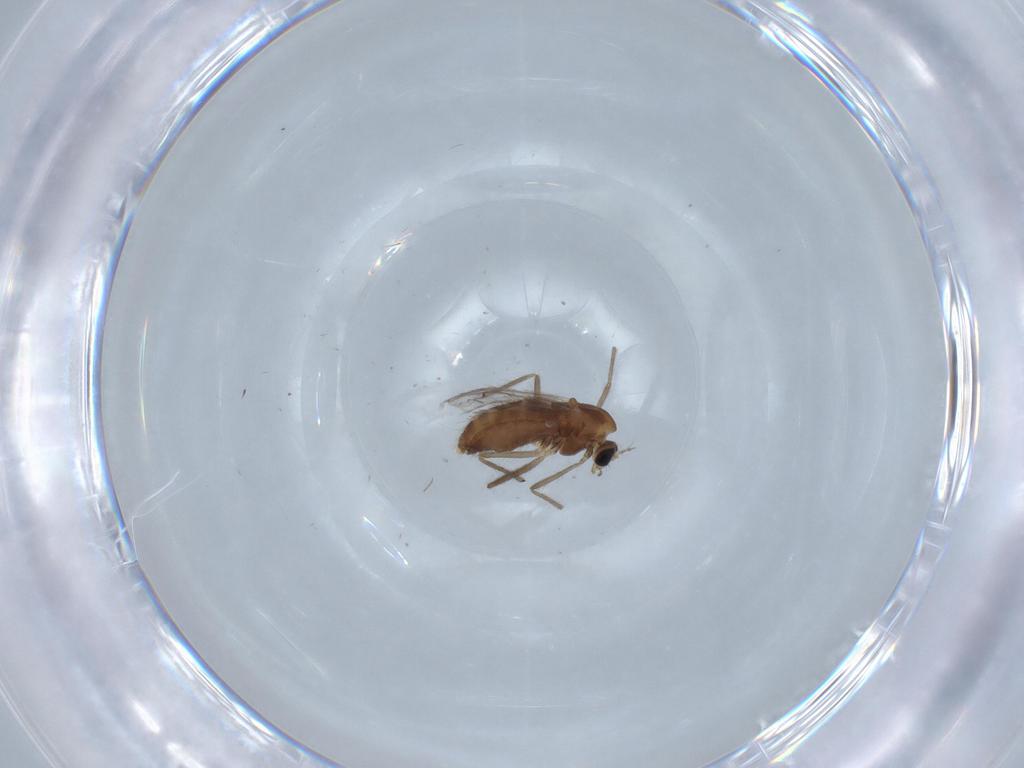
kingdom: Animalia
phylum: Arthropoda
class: Insecta
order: Diptera
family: Chironomidae
